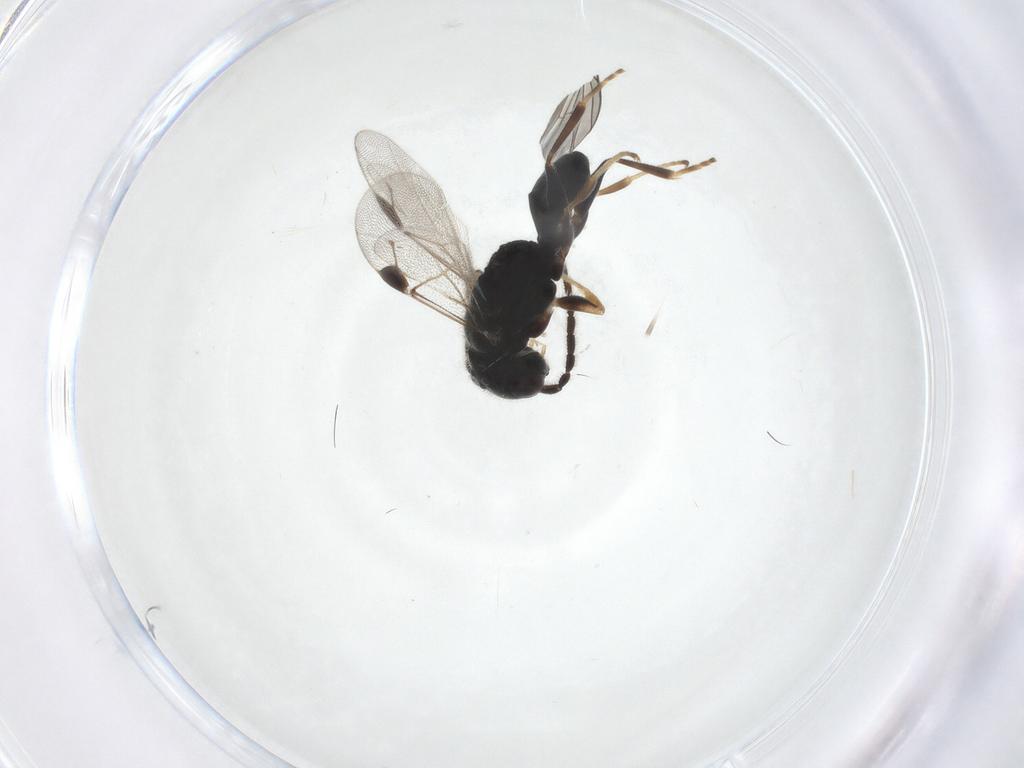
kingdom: Animalia
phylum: Arthropoda
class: Insecta
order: Hymenoptera
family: Dryinidae
